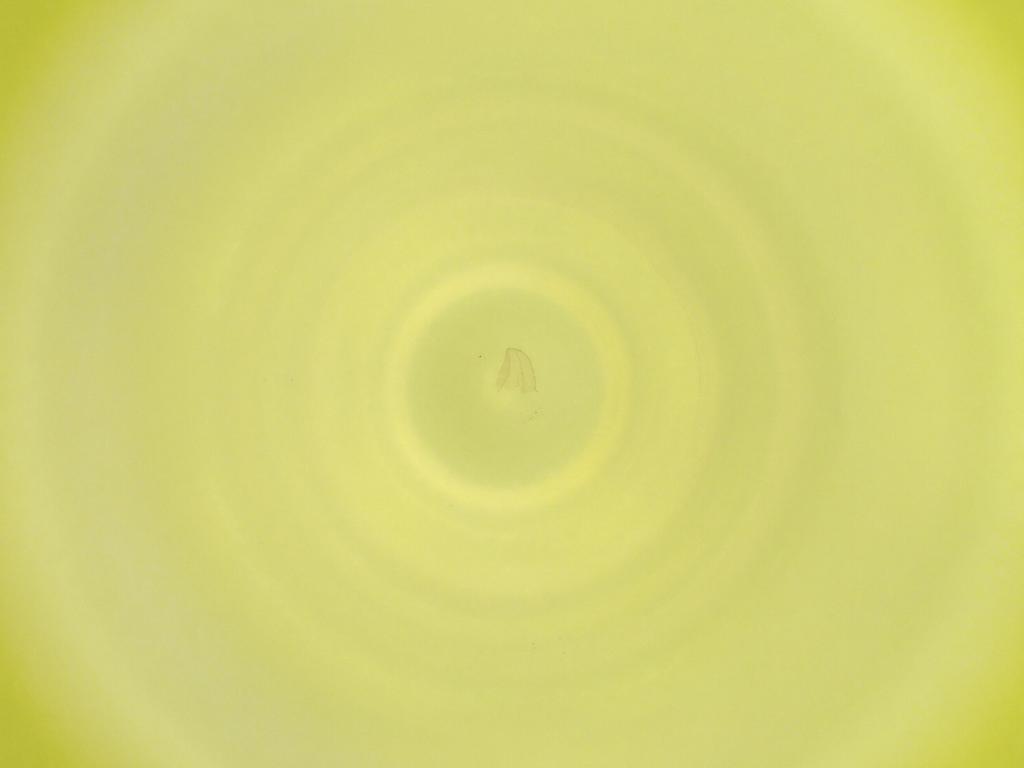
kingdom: Animalia
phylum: Arthropoda
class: Insecta
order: Diptera
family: Cecidomyiidae
